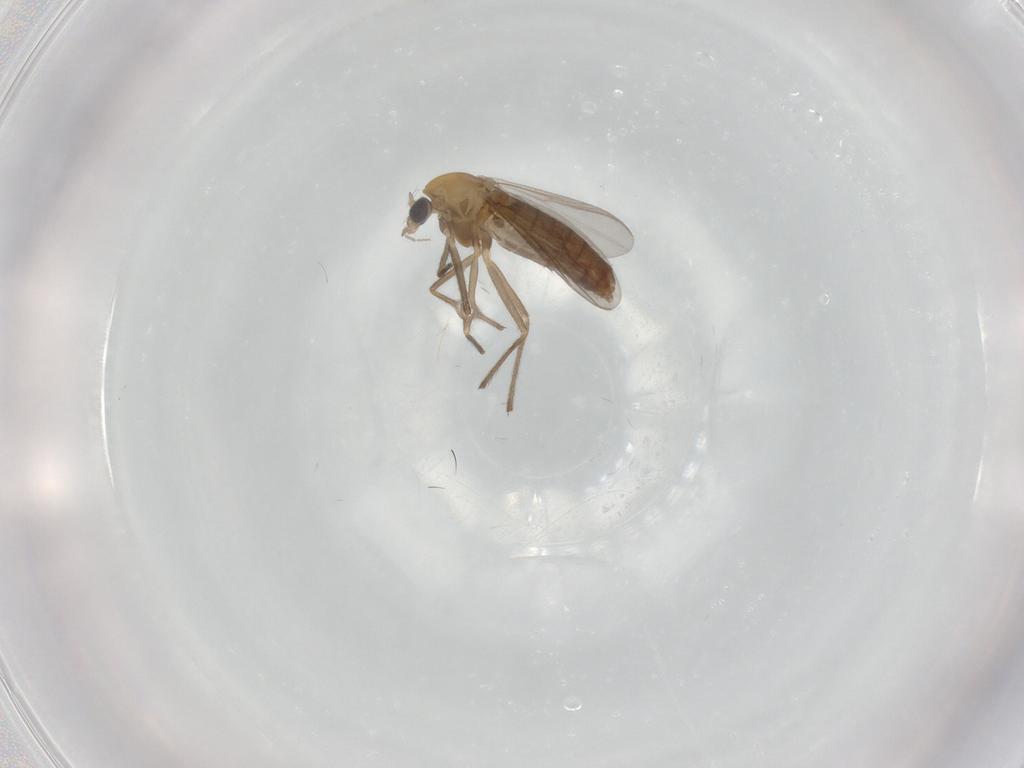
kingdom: Animalia
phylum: Arthropoda
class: Insecta
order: Diptera
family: Chironomidae
